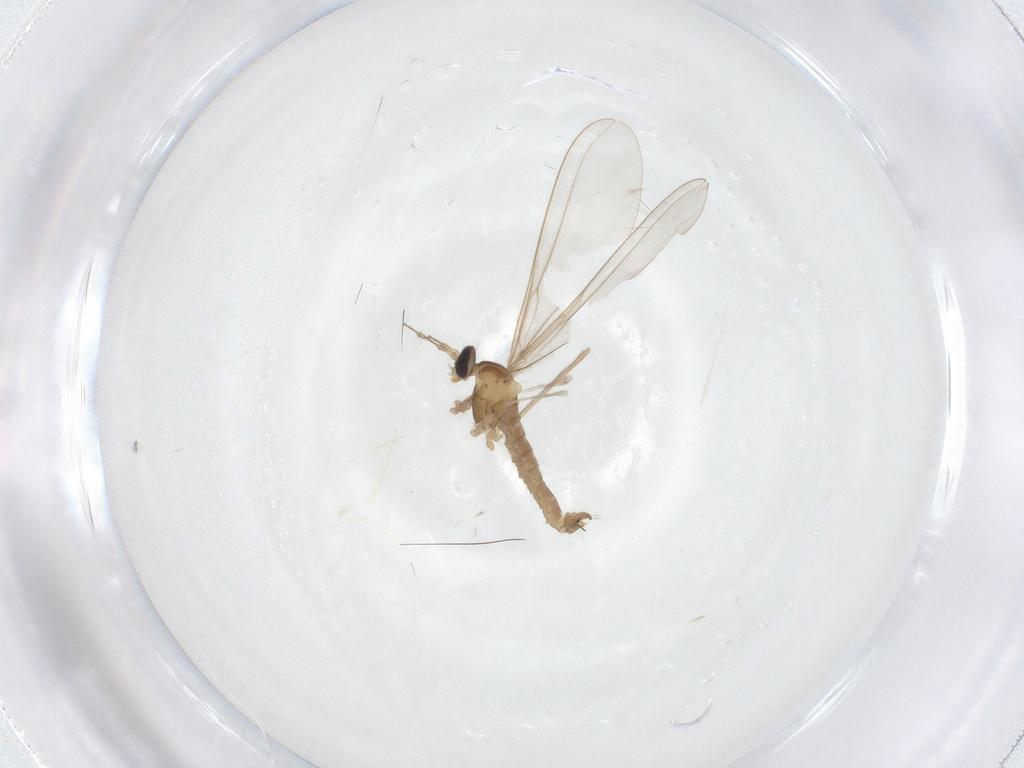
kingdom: Animalia
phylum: Arthropoda
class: Insecta
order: Diptera
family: Cecidomyiidae
